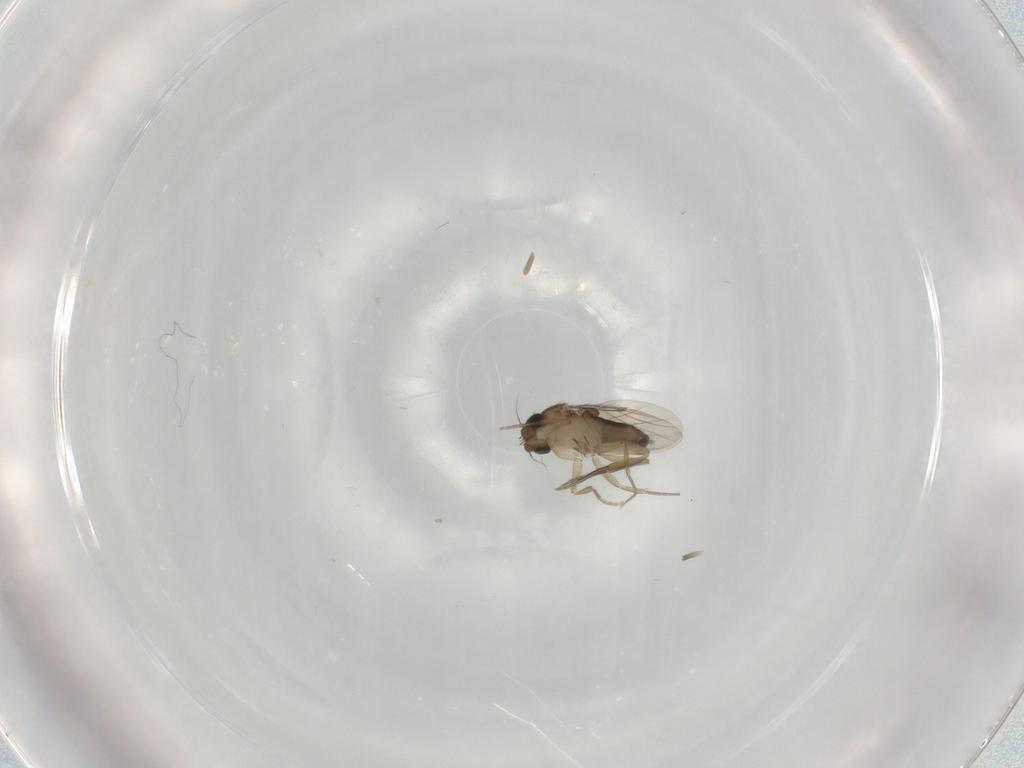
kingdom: Animalia
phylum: Arthropoda
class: Insecta
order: Diptera
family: Phoridae
